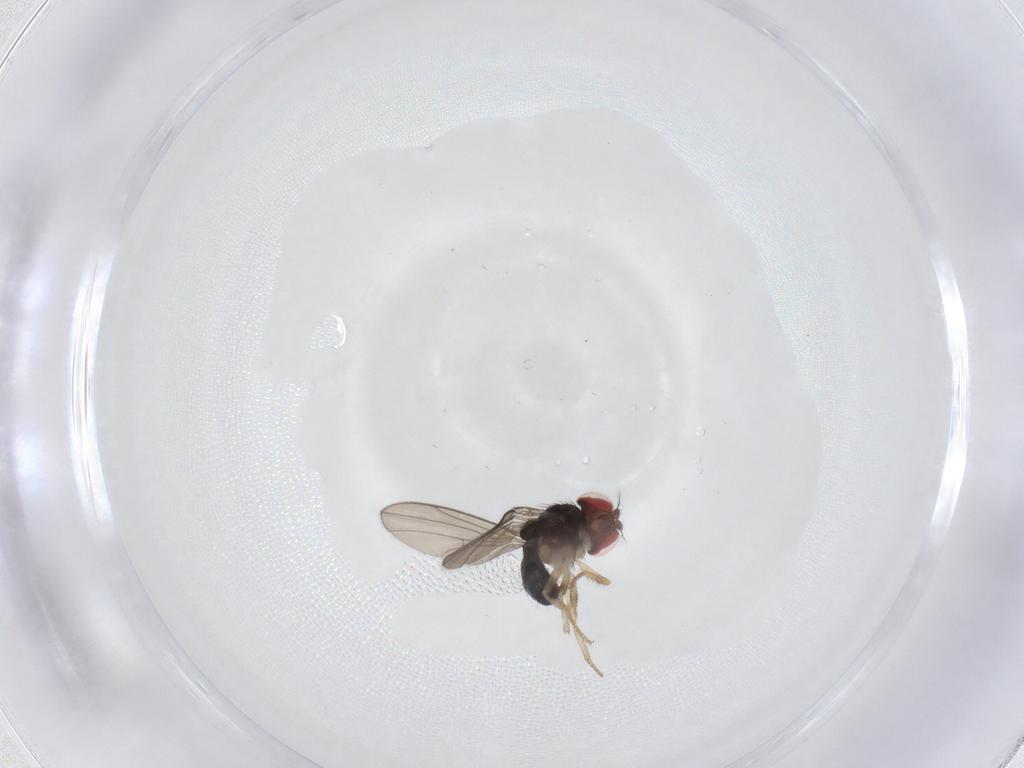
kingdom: Animalia
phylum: Arthropoda
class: Insecta
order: Diptera
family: Drosophilidae
